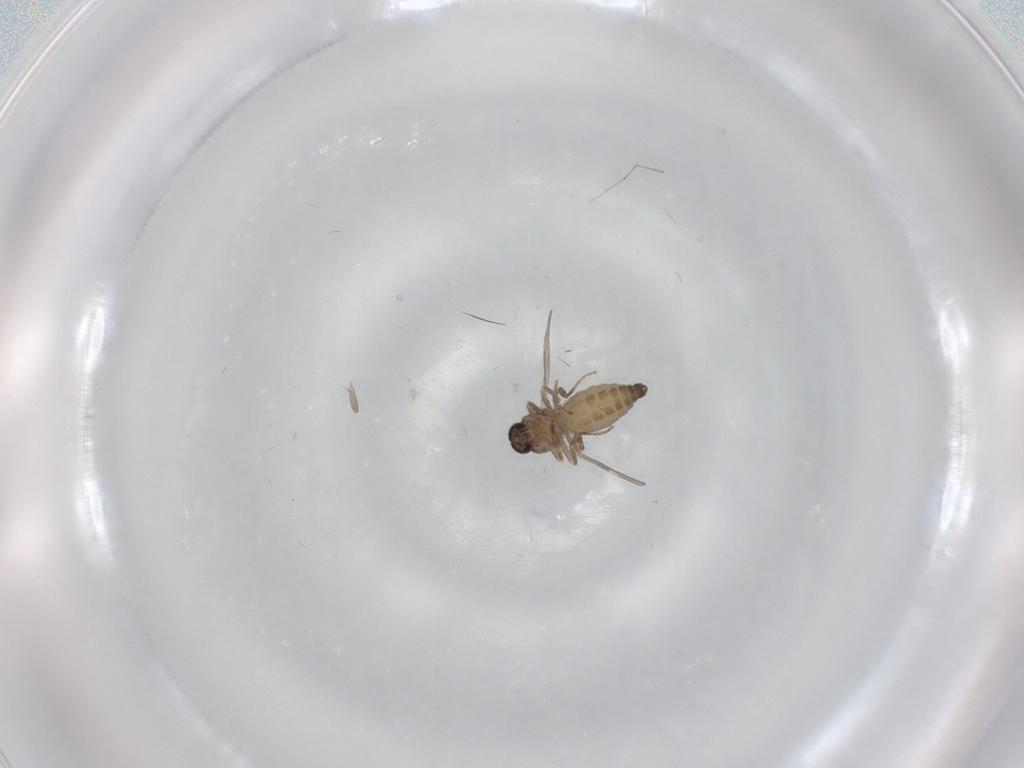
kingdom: Animalia
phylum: Arthropoda
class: Insecta
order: Diptera
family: Ceratopogonidae
